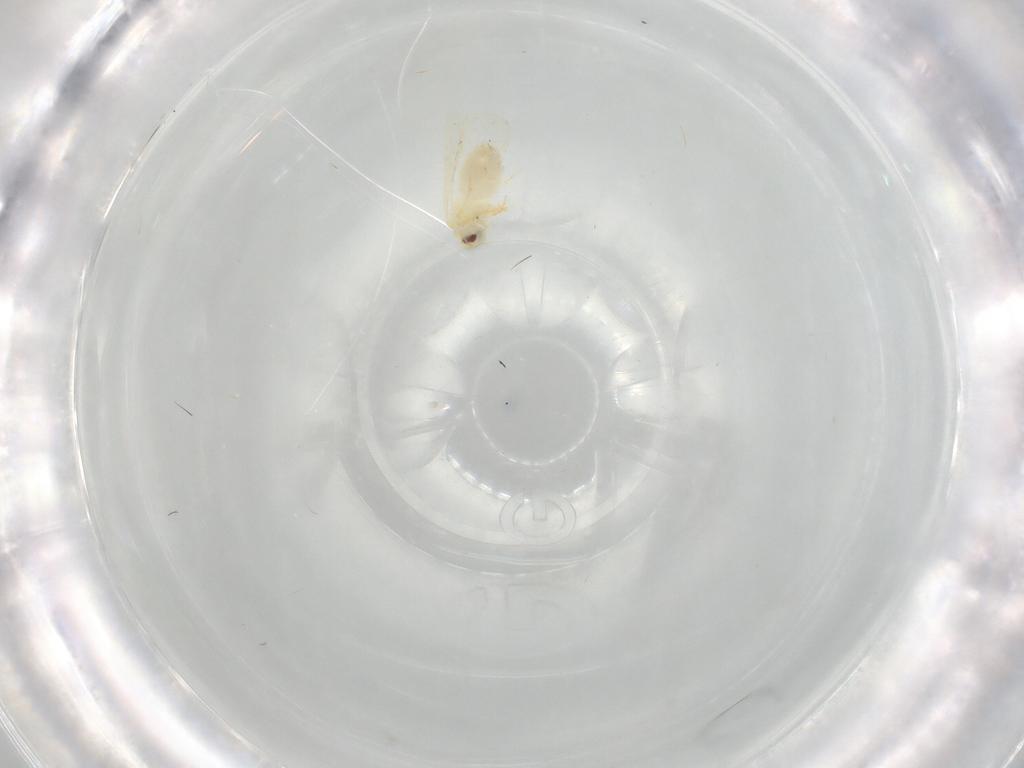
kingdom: Animalia
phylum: Arthropoda
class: Insecta
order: Hemiptera
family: Aleyrodidae
